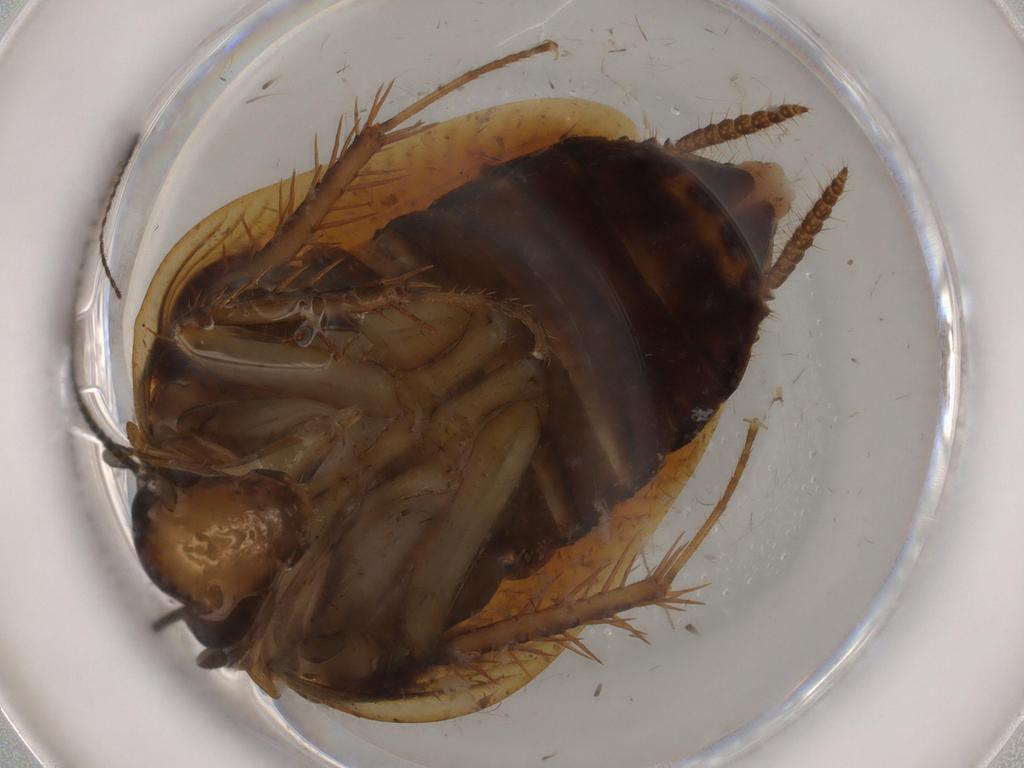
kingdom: Animalia
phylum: Arthropoda
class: Insecta
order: Blattodea
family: Ectobiidae
